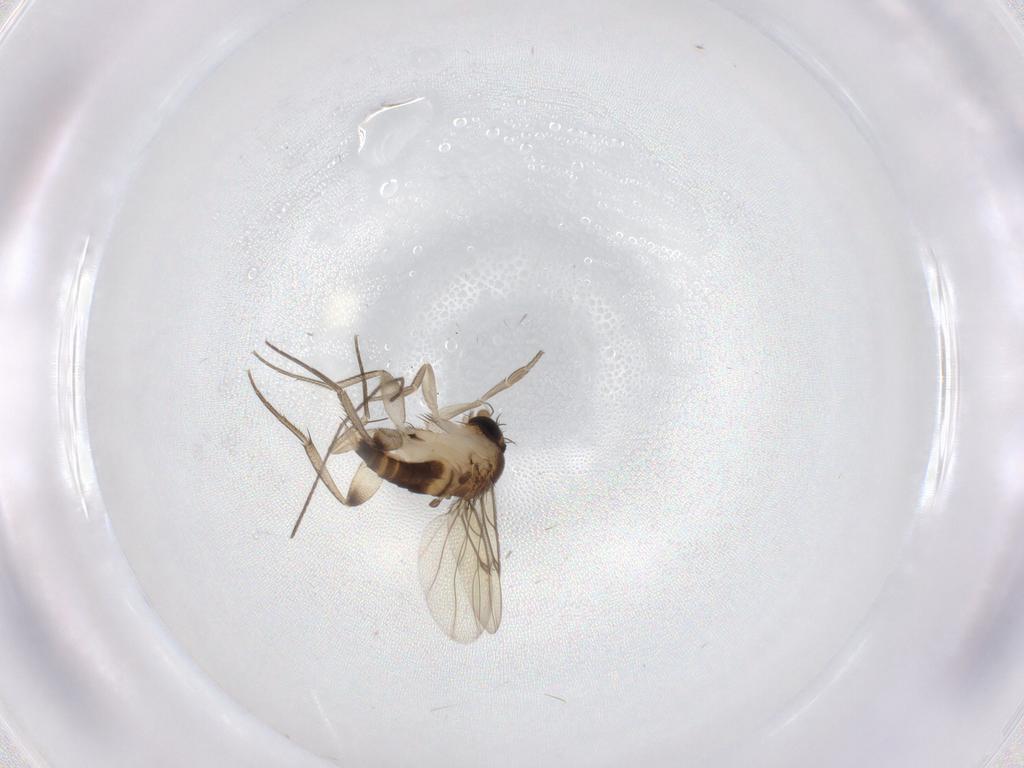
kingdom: Animalia
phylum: Arthropoda
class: Insecta
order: Diptera
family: Phoridae
